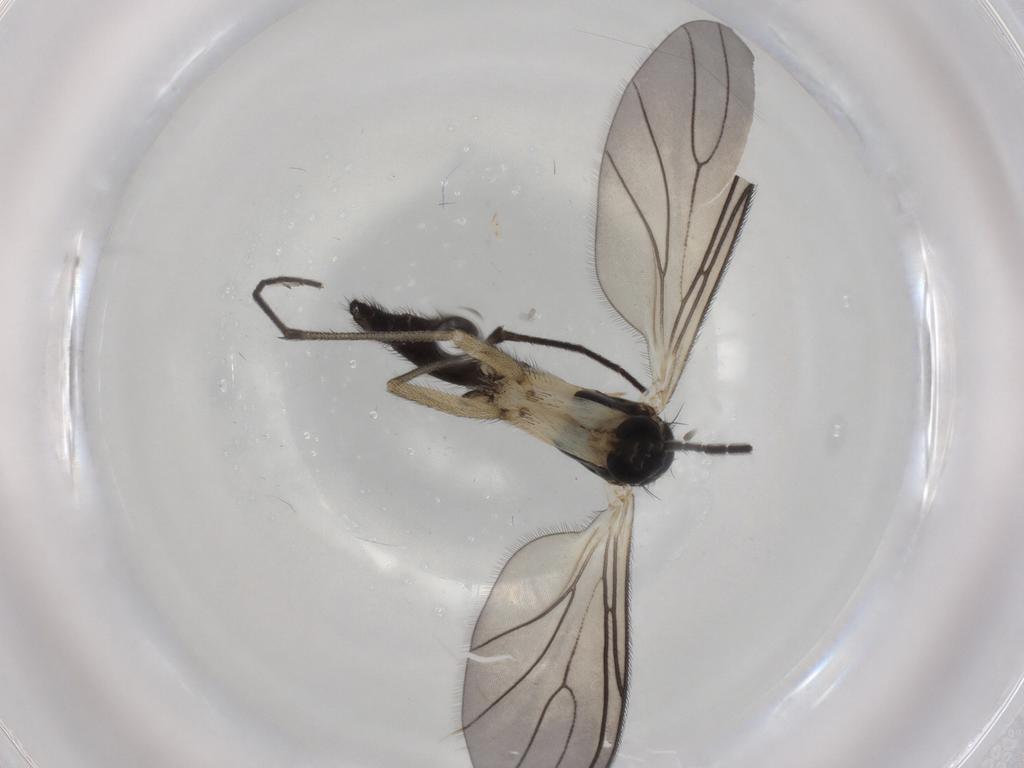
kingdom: Animalia
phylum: Arthropoda
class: Insecta
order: Diptera
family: Sciaridae
